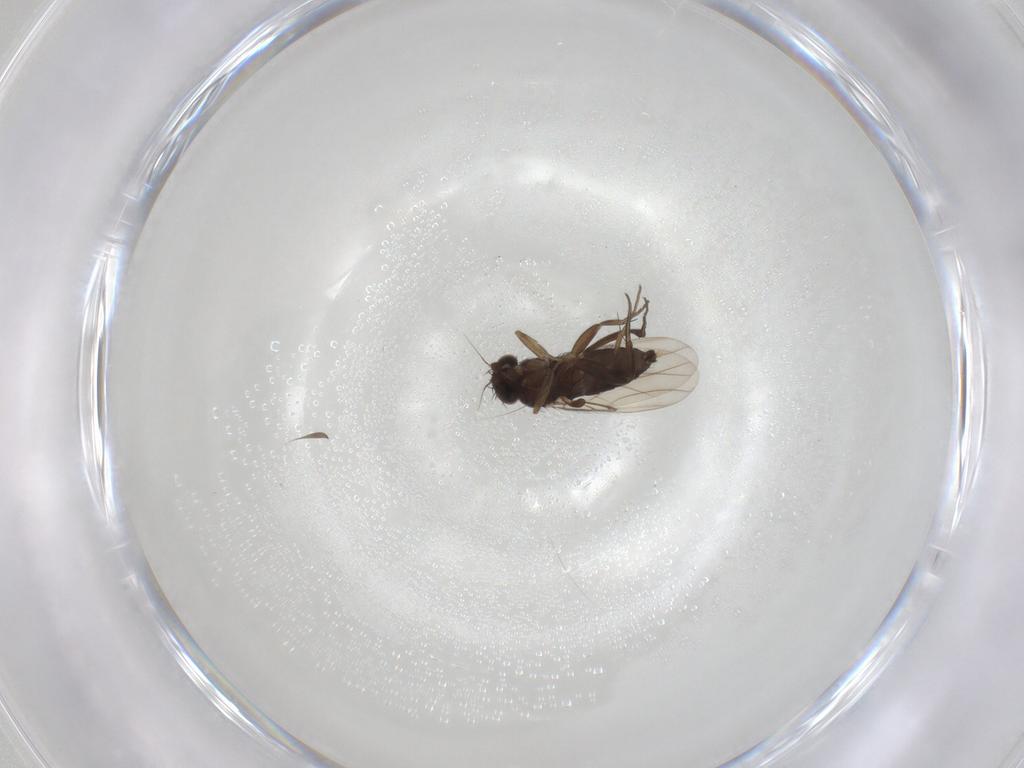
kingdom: Animalia
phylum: Arthropoda
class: Insecta
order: Diptera
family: Phoridae
